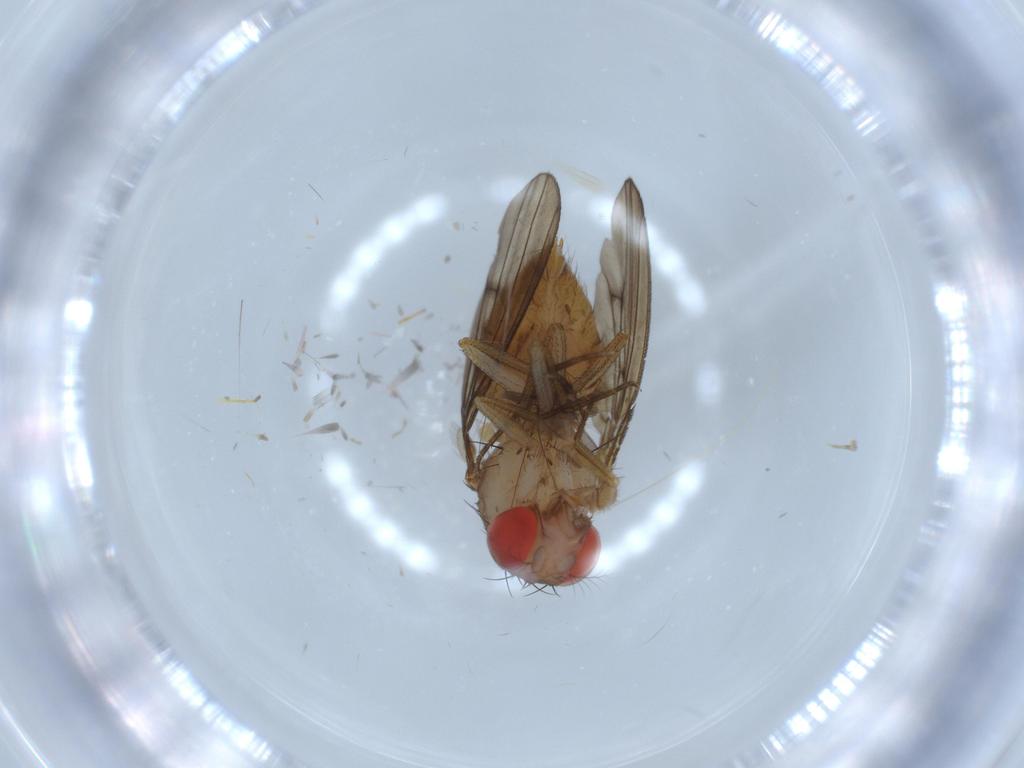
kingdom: Animalia
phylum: Arthropoda
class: Insecta
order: Diptera
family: Drosophilidae
